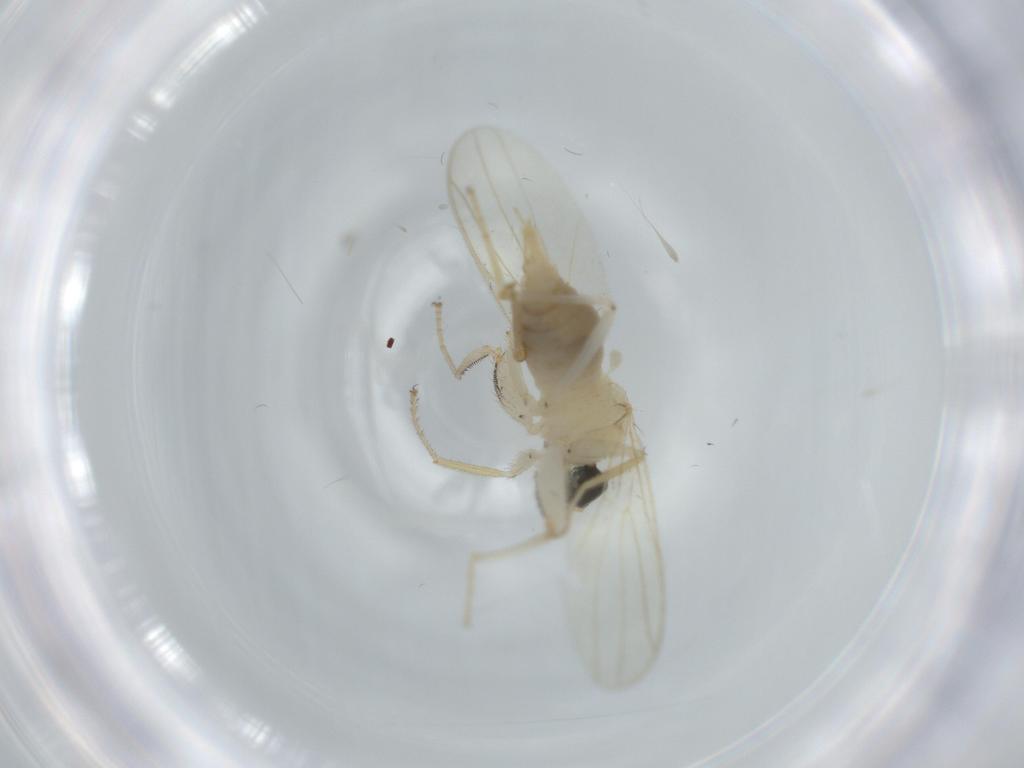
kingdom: Animalia
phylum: Arthropoda
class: Insecta
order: Diptera
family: Hybotidae
